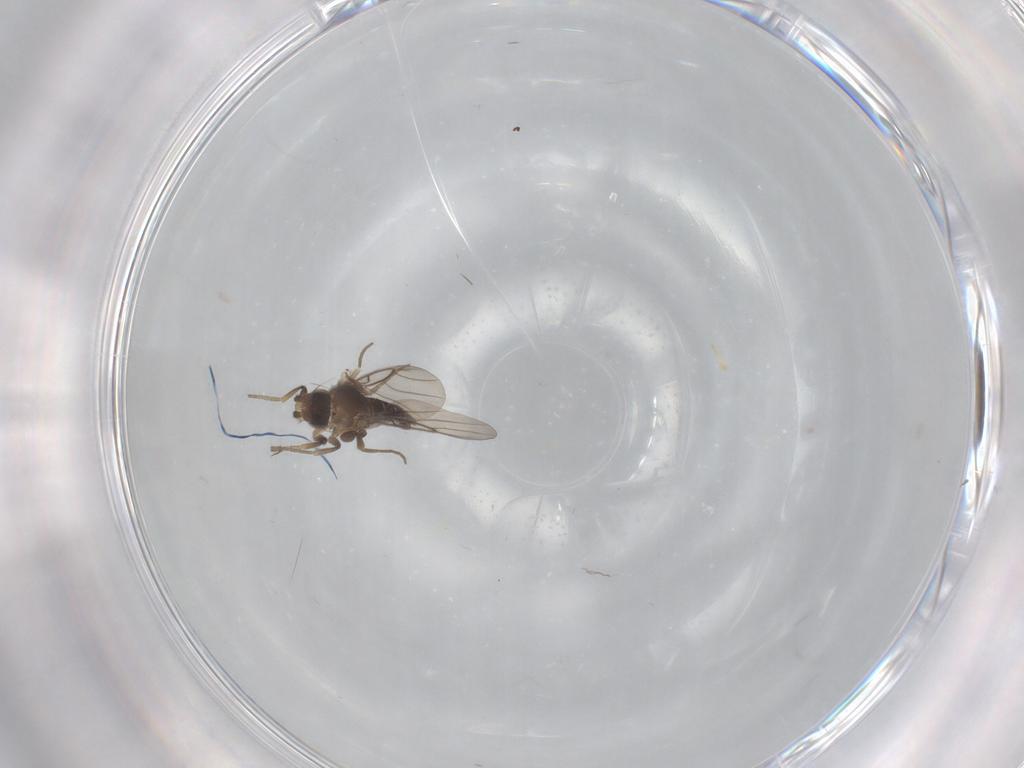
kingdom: Animalia
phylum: Arthropoda
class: Insecta
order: Diptera
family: Phoridae
